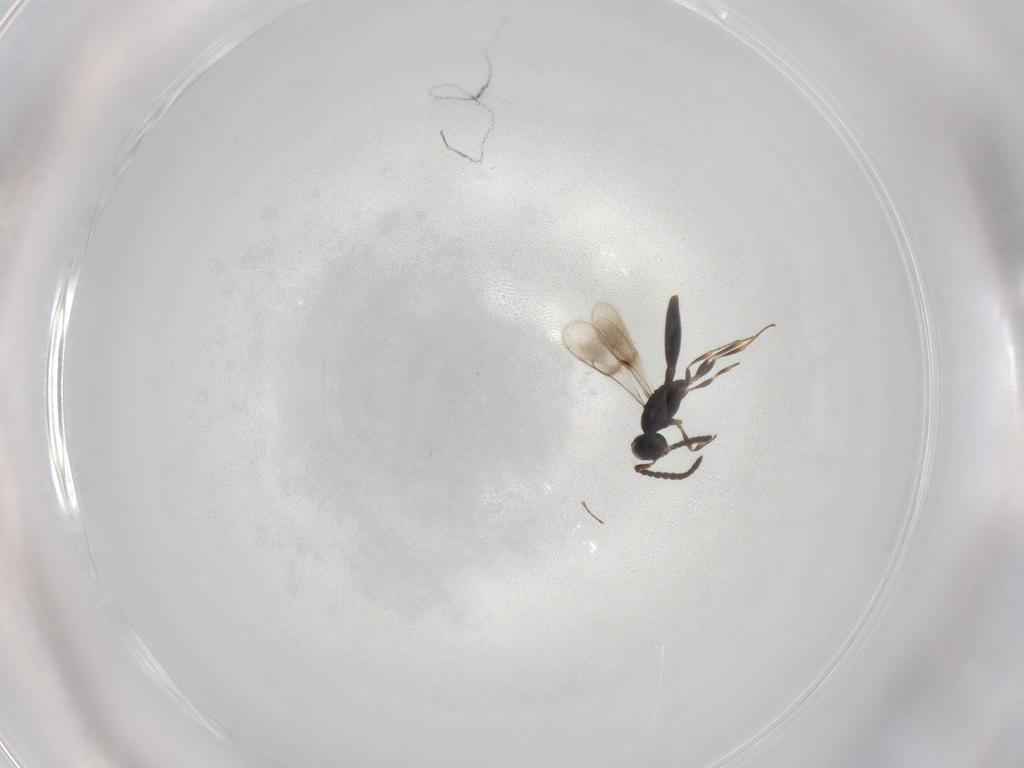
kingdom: Animalia
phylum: Arthropoda
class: Insecta
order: Hymenoptera
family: Scelionidae
